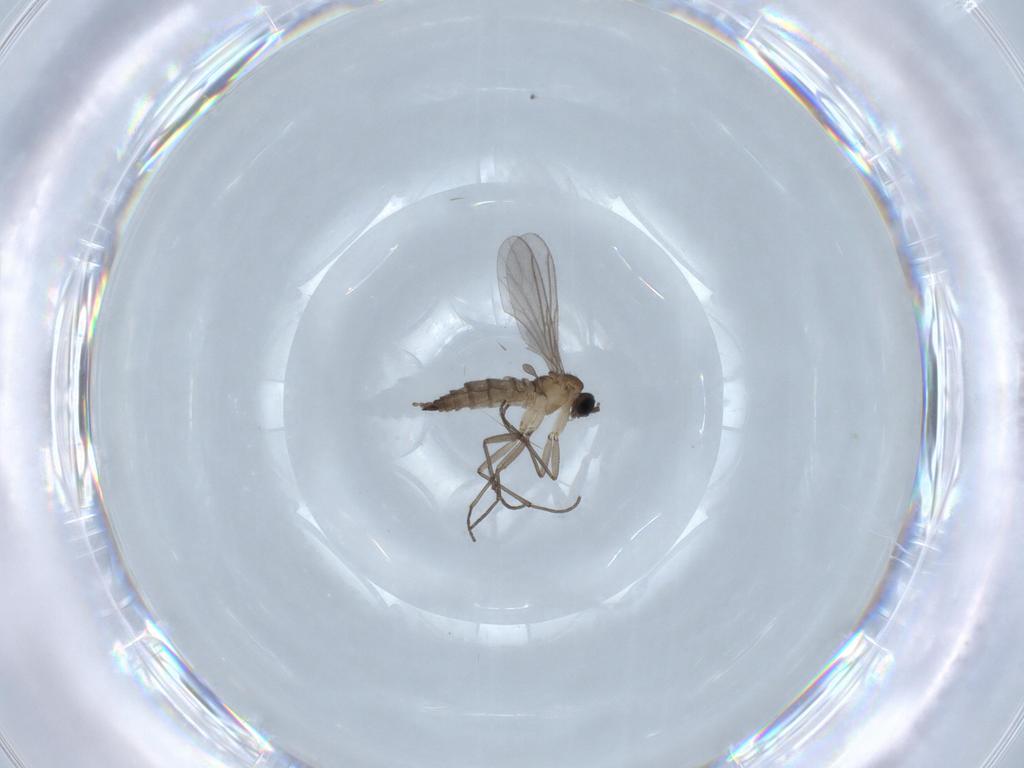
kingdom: Animalia
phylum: Arthropoda
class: Insecta
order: Diptera
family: Sciaridae
